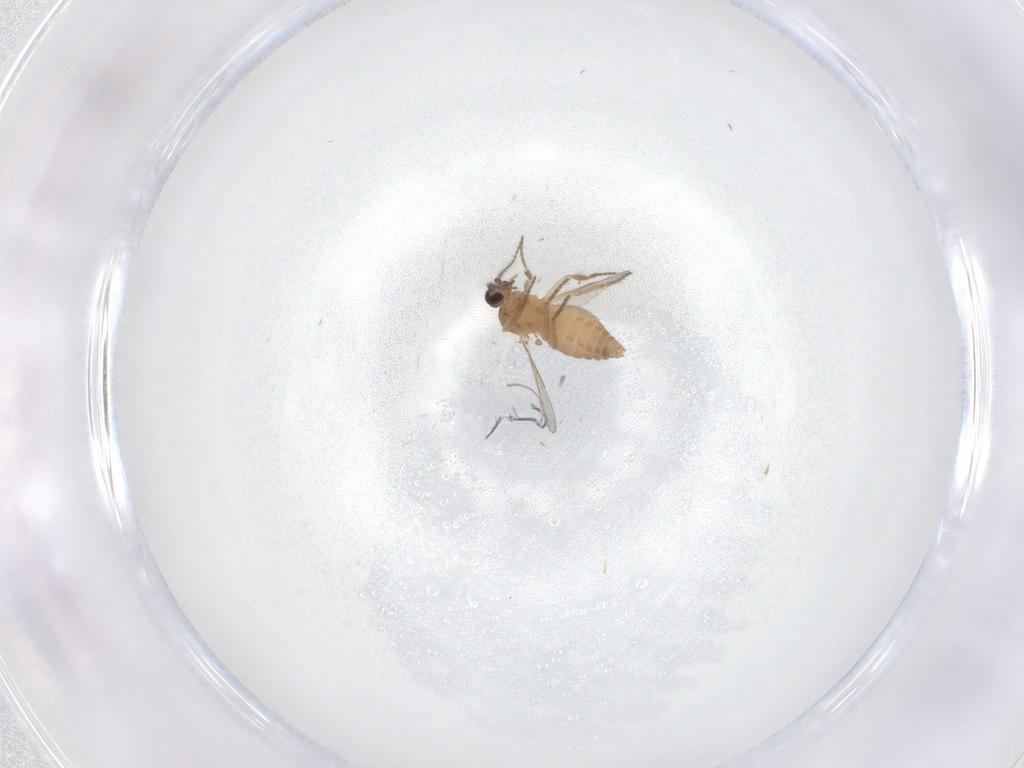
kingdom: Animalia
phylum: Arthropoda
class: Insecta
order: Diptera
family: Ceratopogonidae
